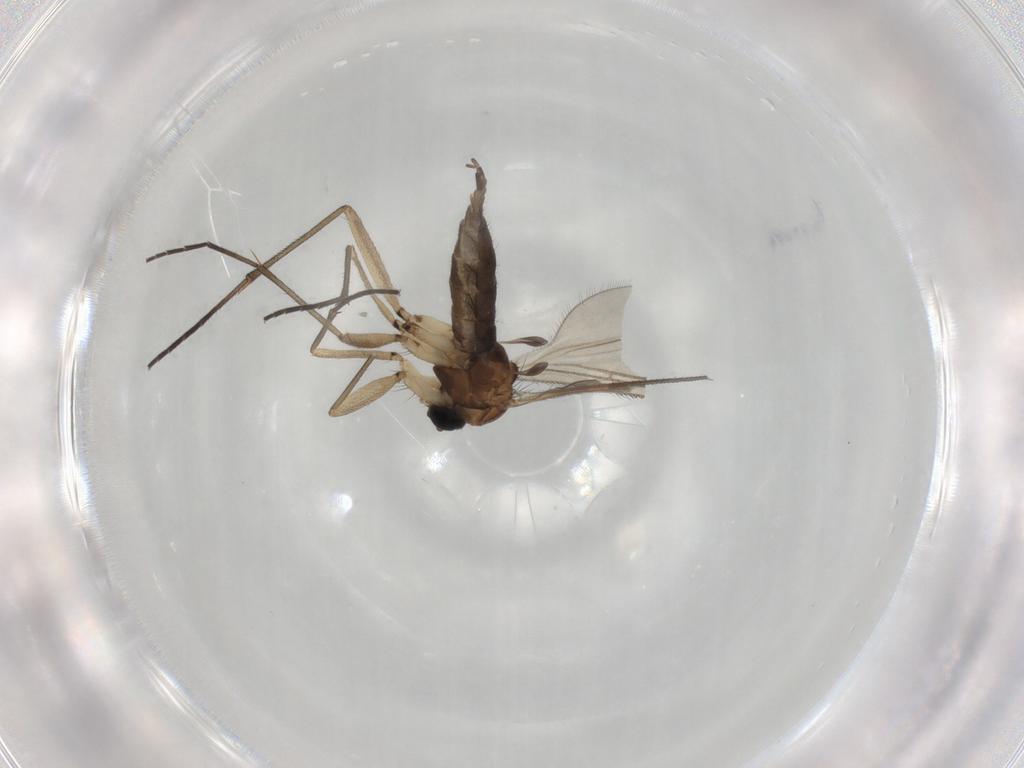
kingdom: Animalia
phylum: Arthropoda
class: Insecta
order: Diptera
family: Sciaridae
